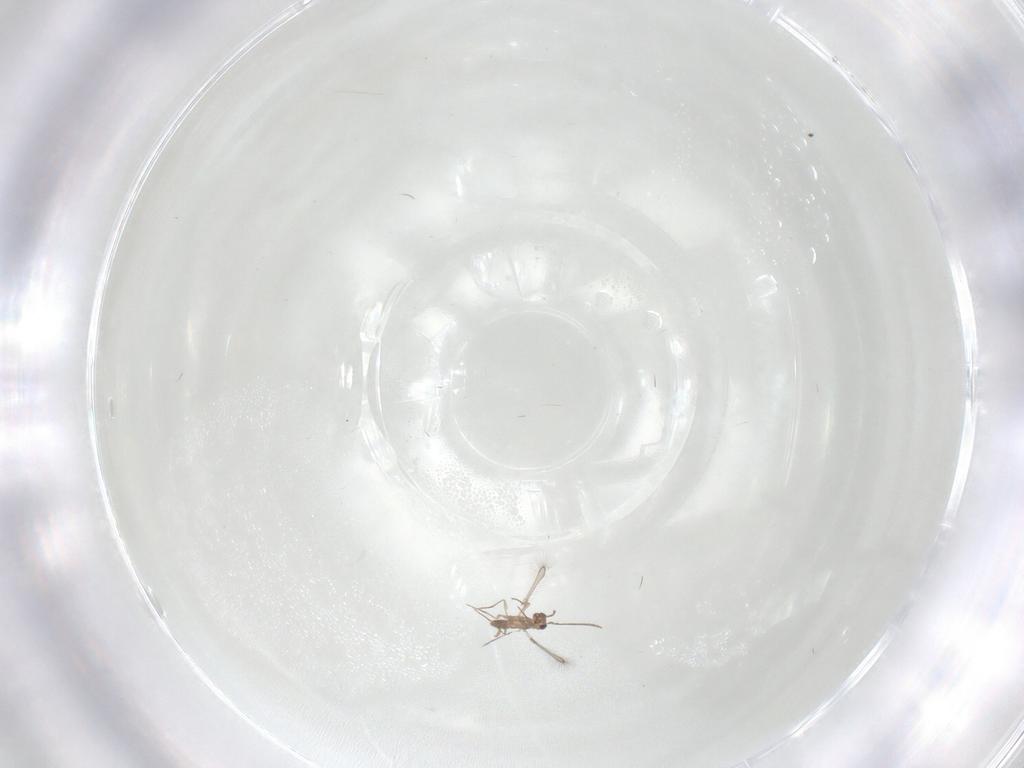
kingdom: Animalia
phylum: Arthropoda
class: Insecta
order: Hymenoptera
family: Mymaridae
